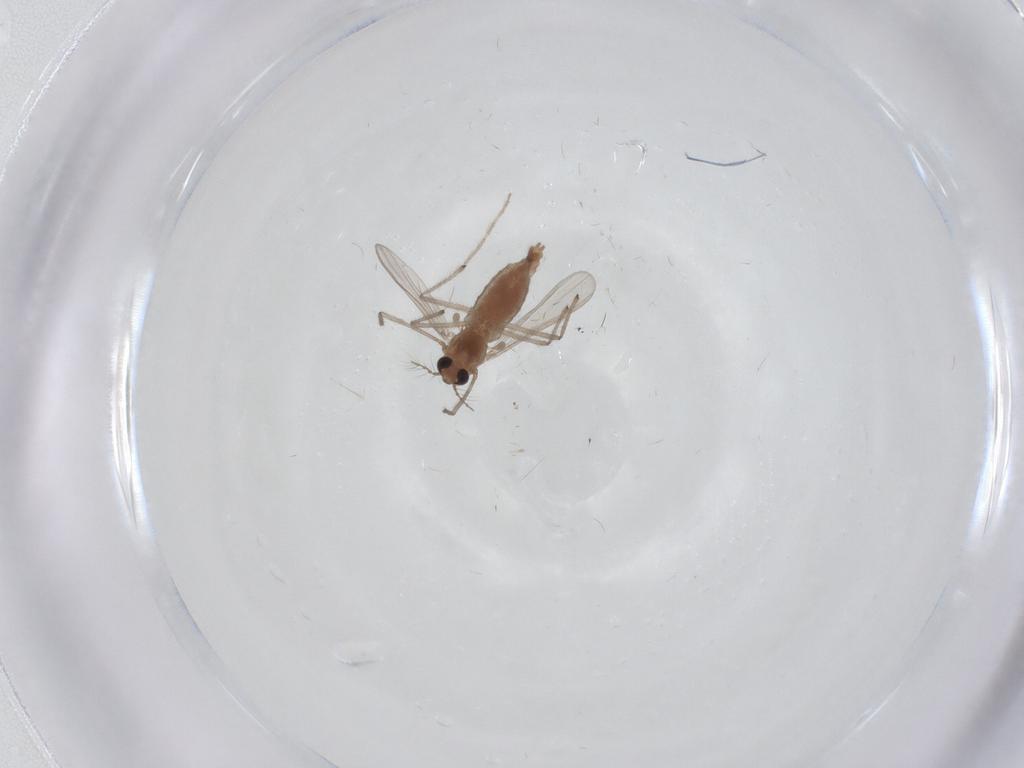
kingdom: Animalia
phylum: Arthropoda
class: Insecta
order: Diptera
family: Chironomidae
